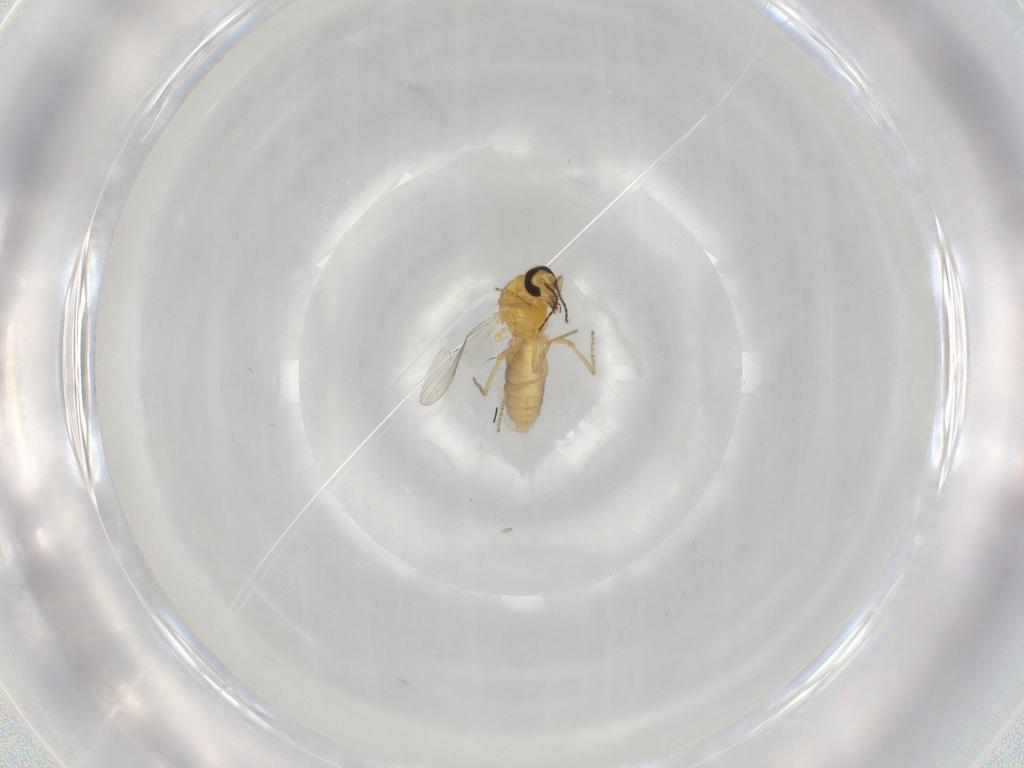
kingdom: Animalia
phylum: Arthropoda
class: Insecta
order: Diptera
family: Ceratopogonidae
